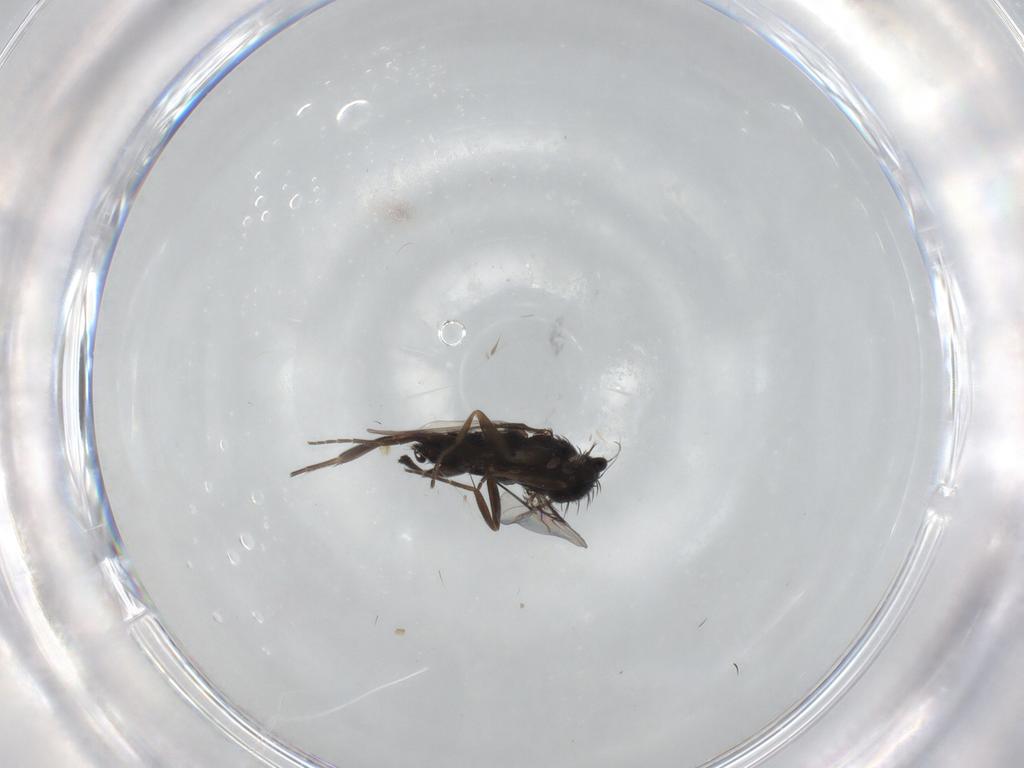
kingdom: Animalia
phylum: Arthropoda
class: Insecta
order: Diptera
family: Phoridae
